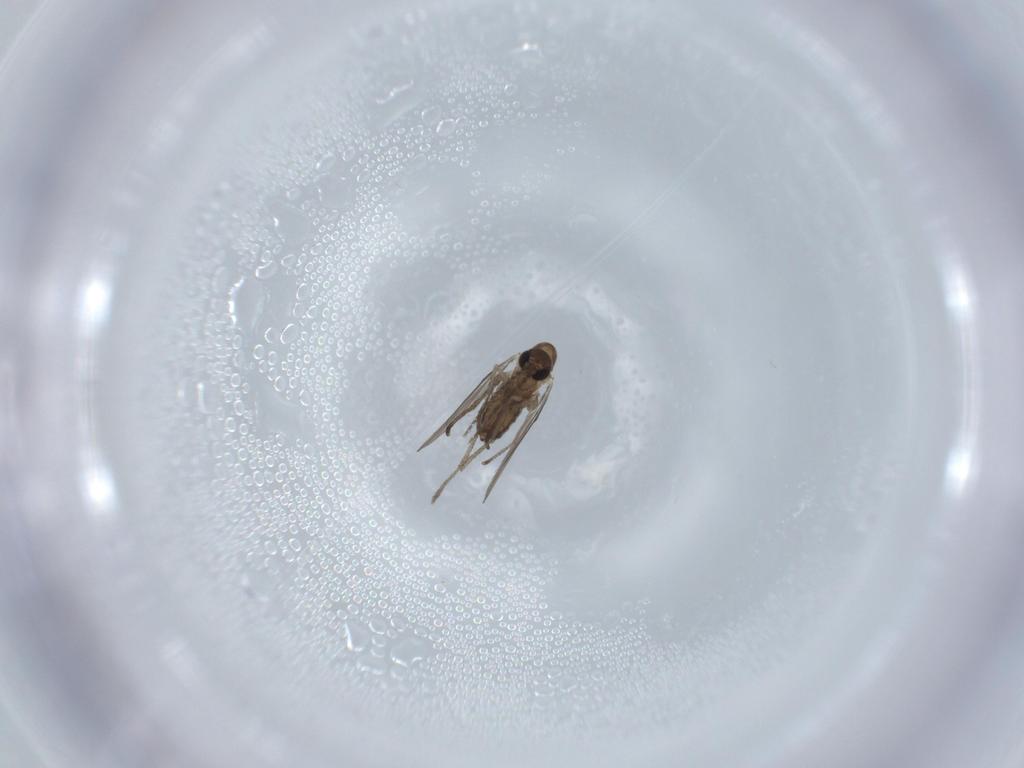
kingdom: Animalia
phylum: Arthropoda
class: Insecta
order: Diptera
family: Psychodidae
